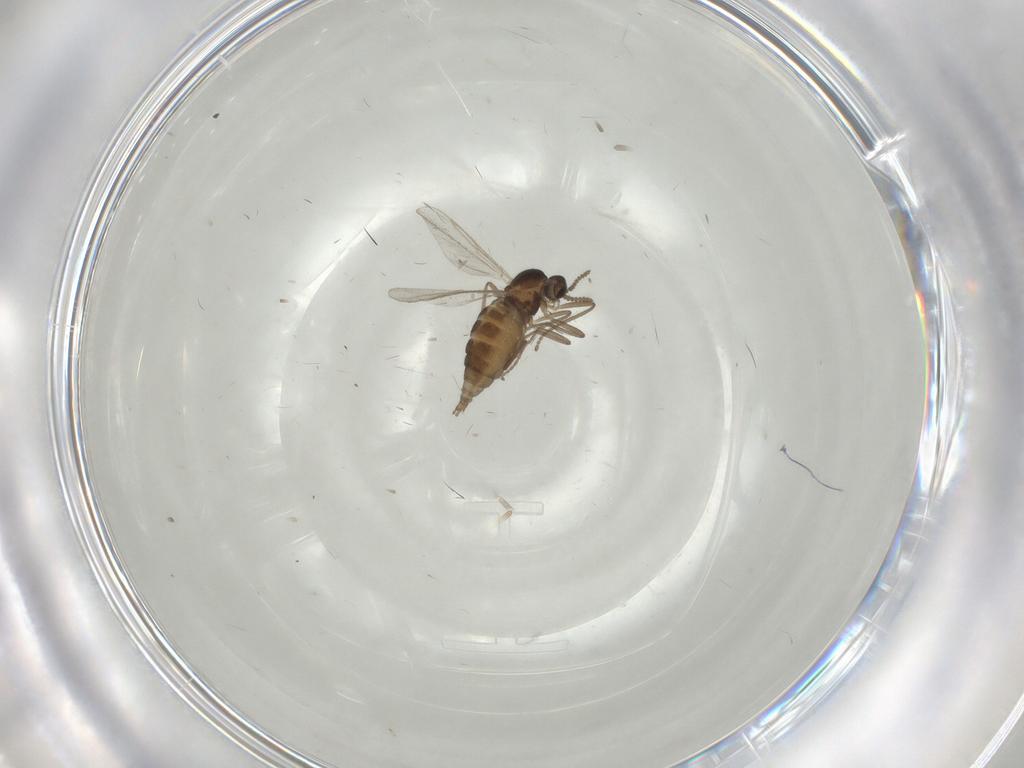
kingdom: Animalia
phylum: Arthropoda
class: Insecta
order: Diptera
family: Cecidomyiidae
